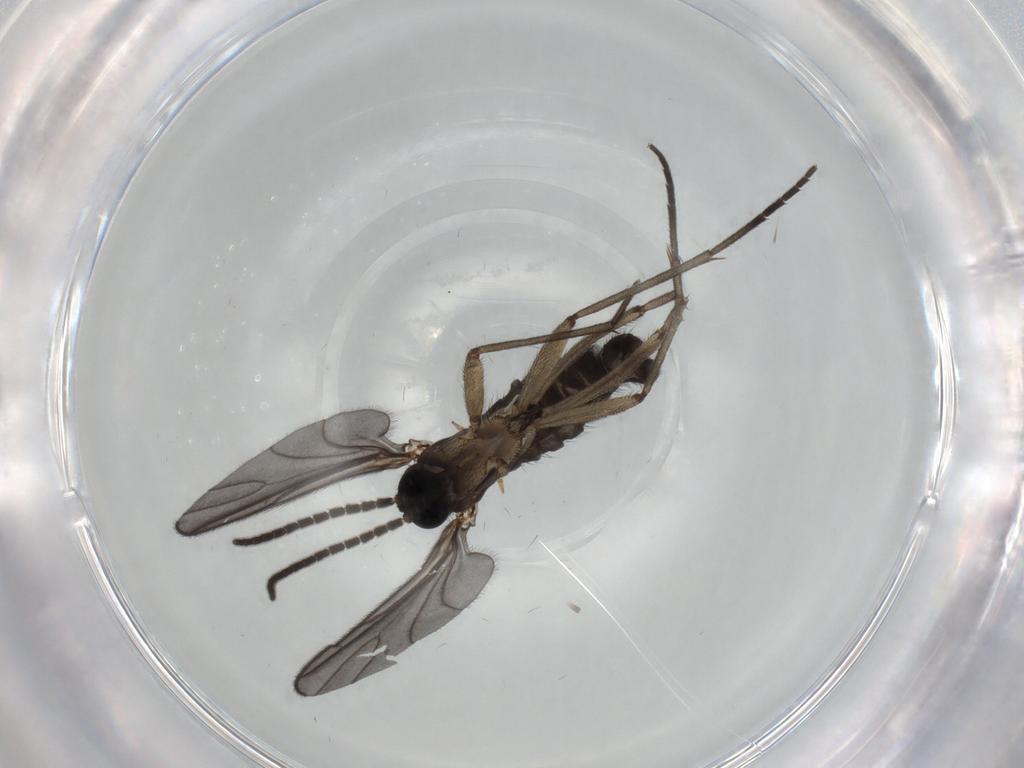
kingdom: Animalia
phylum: Arthropoda
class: Insecta
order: Diptera
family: Sciaridae
